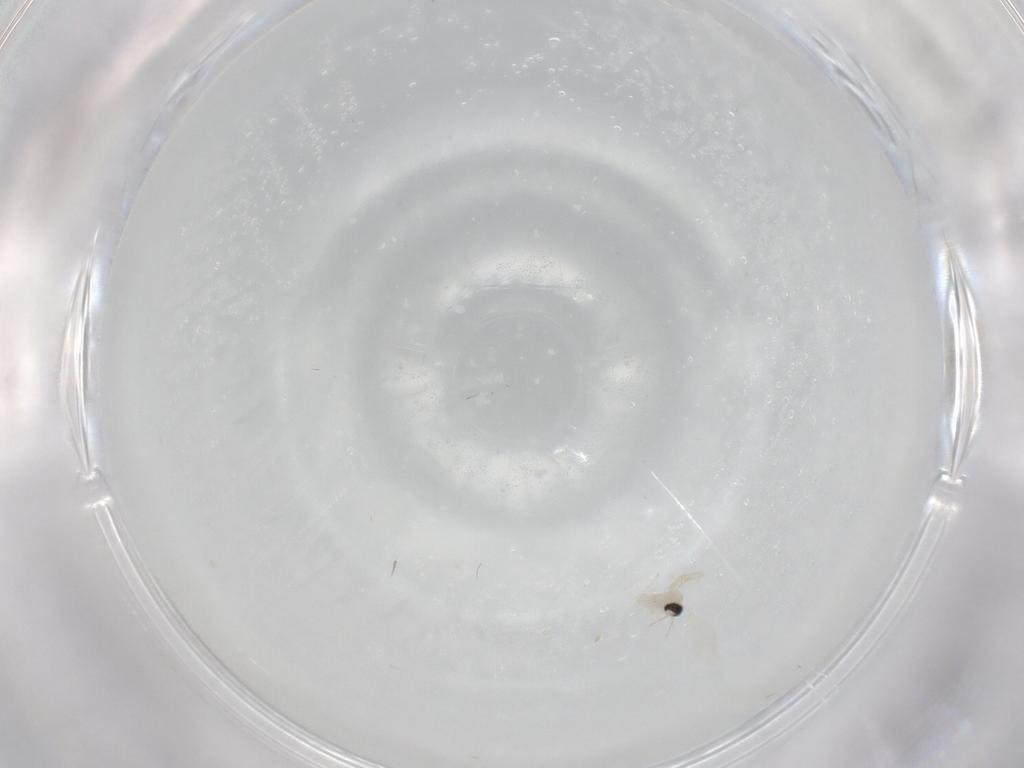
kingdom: Animalia
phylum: Arthropoda
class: Insecta
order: Diptera
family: Cecidomyiidae
